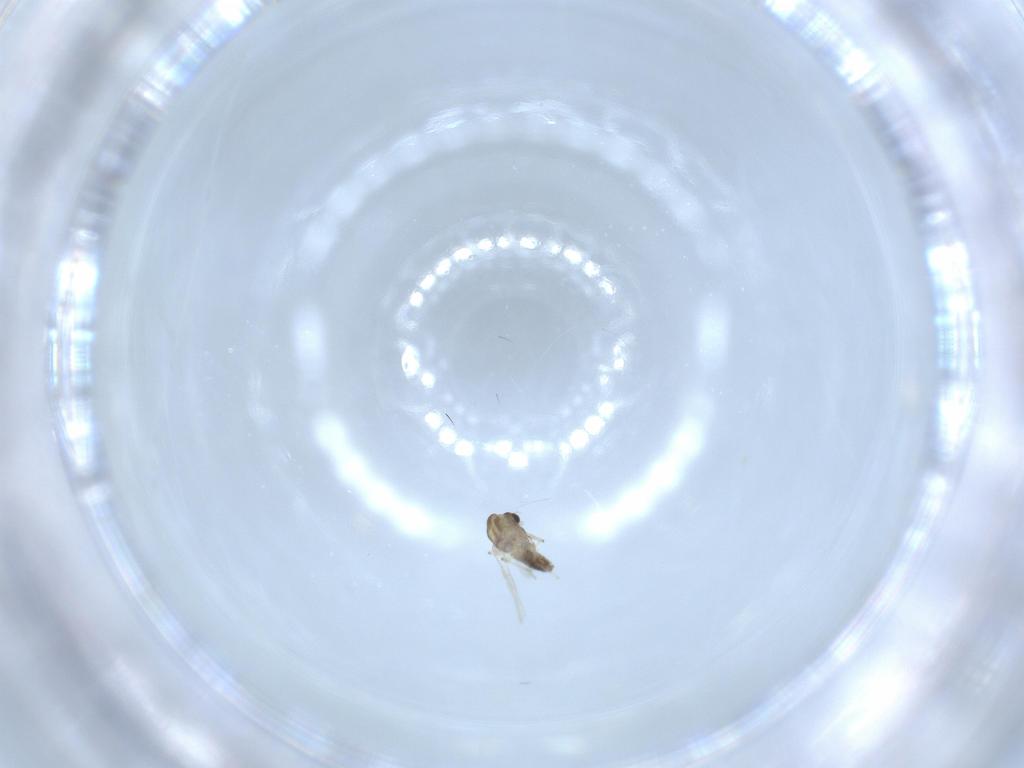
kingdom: Animalia
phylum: Arthropoda
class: Insecta
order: Diptera
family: Chironomidae
